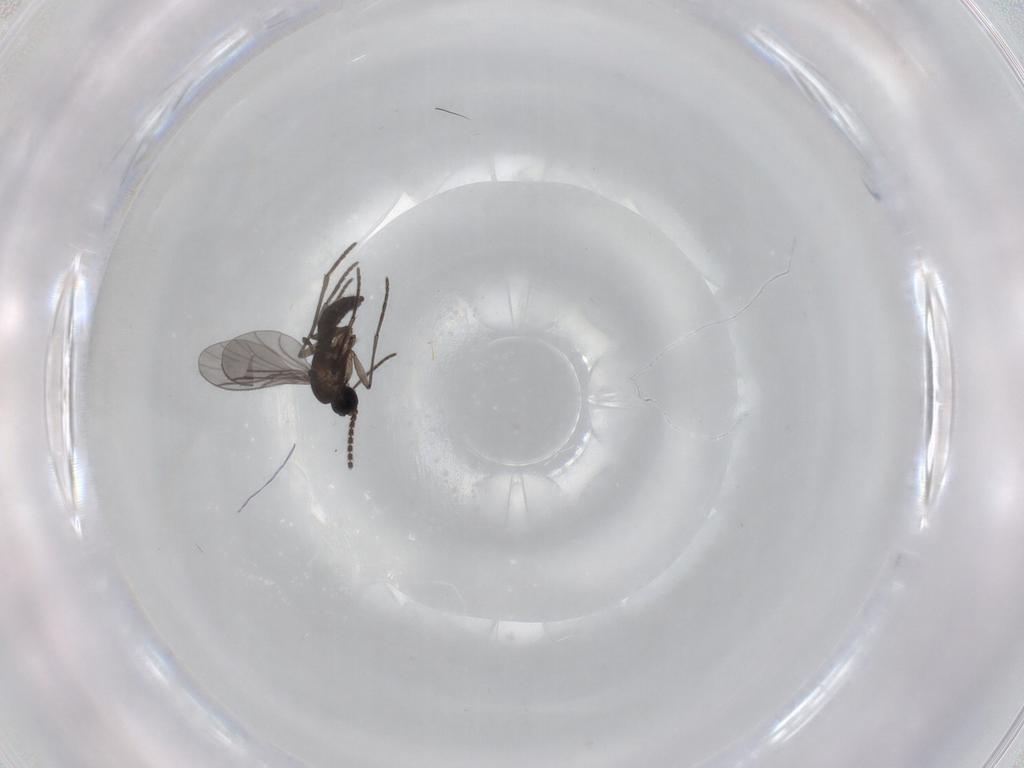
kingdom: Animalia
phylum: Arthropoda
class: Insecta
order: Diptera
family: Sciaridae
